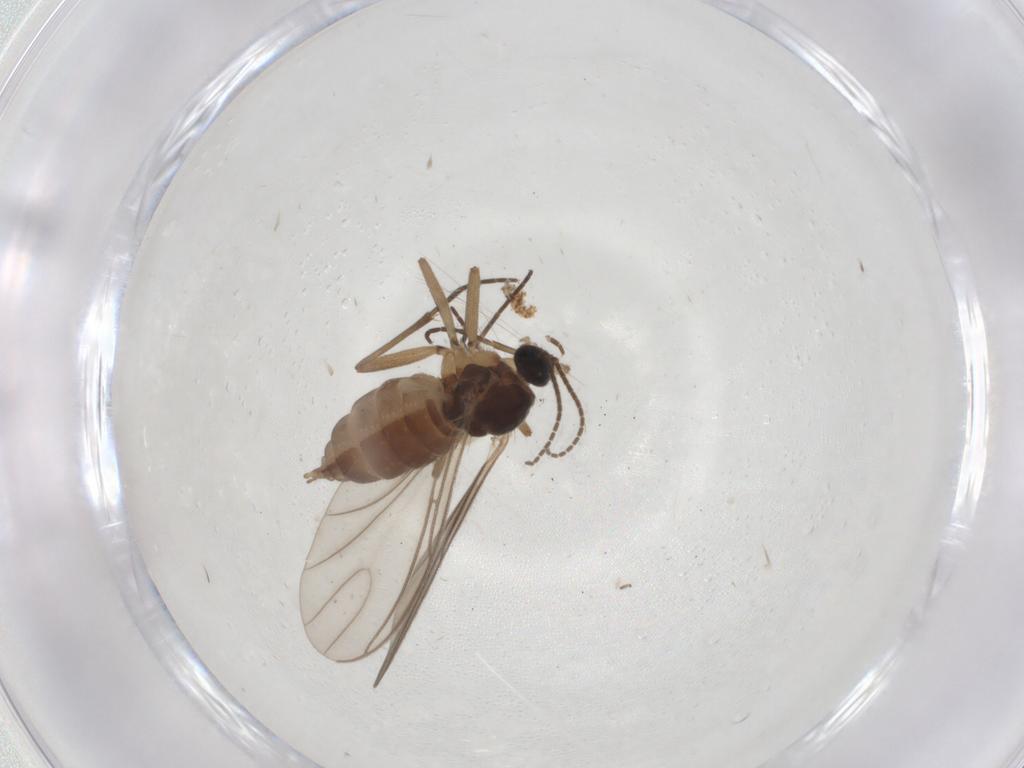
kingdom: Animalia
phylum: Arthropoda
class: Insecta
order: Diptera
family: Sciaridae
